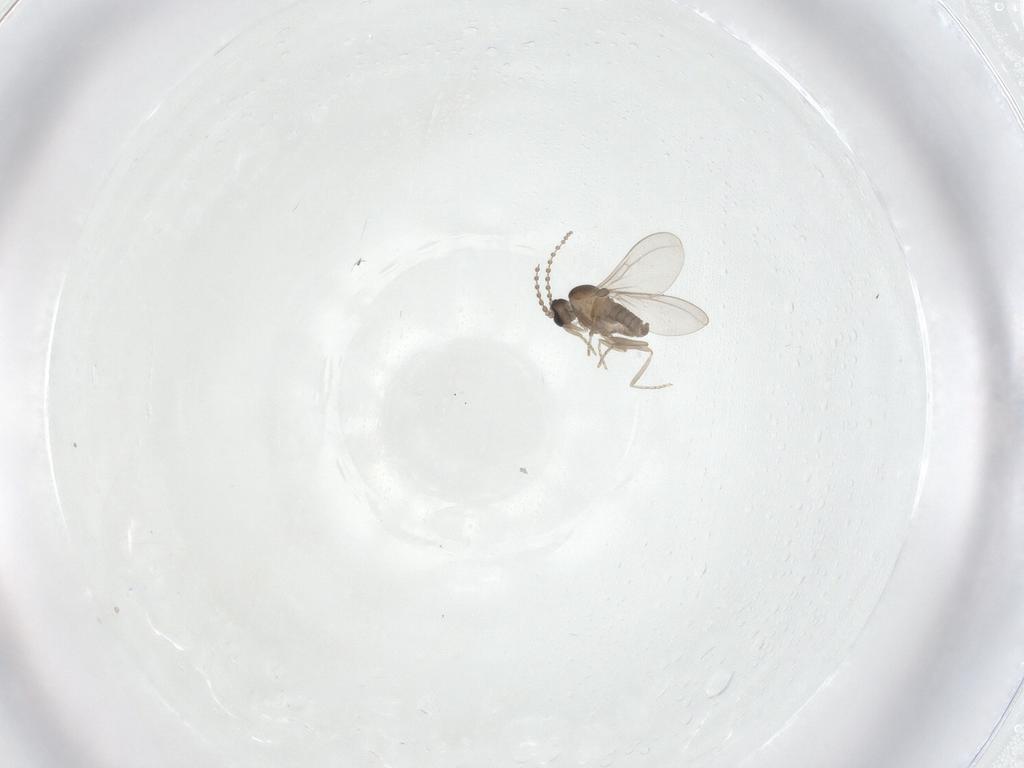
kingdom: Animalia
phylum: Arthropoda
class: Insecta
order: Diptera
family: Cecidomyiidae
